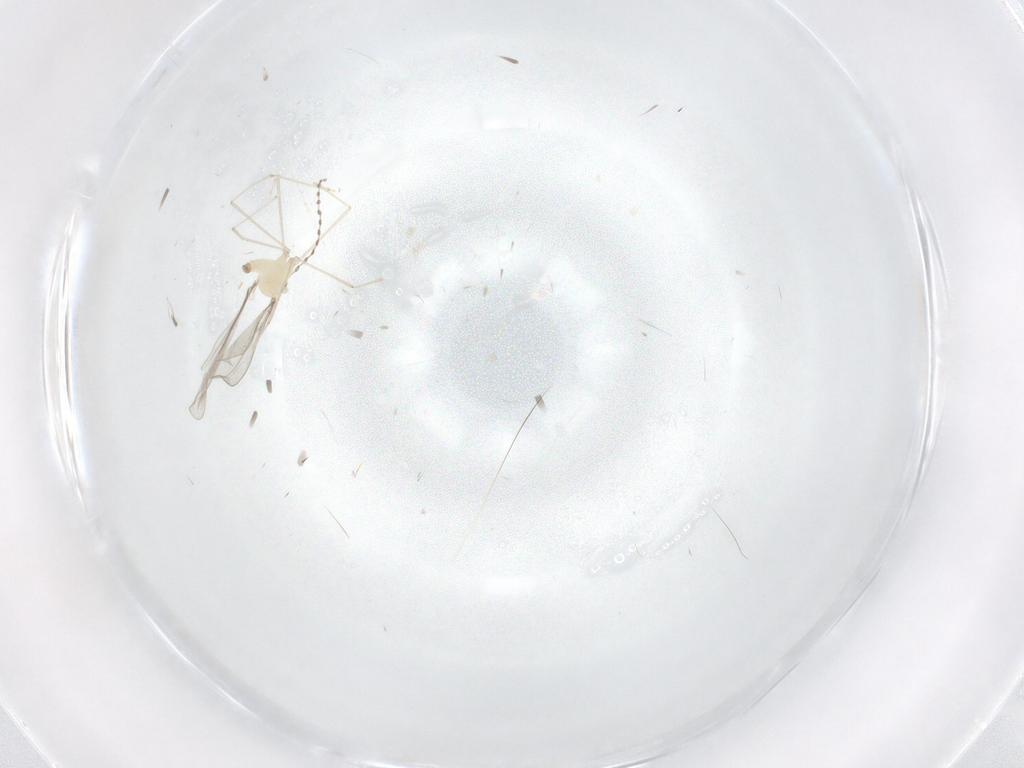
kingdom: Animalia
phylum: Arthropoda
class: Insecta
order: Diptera
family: Cecidomyiidae
